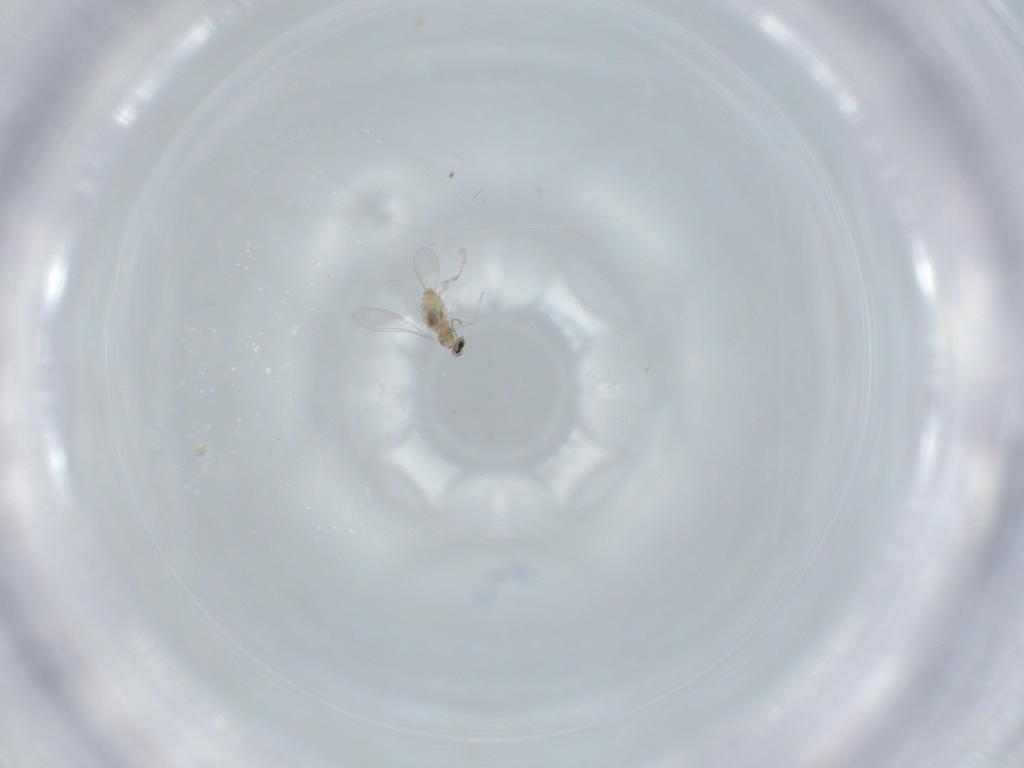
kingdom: Animalia
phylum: Arthropoda
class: Insecta
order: Diptera
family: Cecidomyiidae
